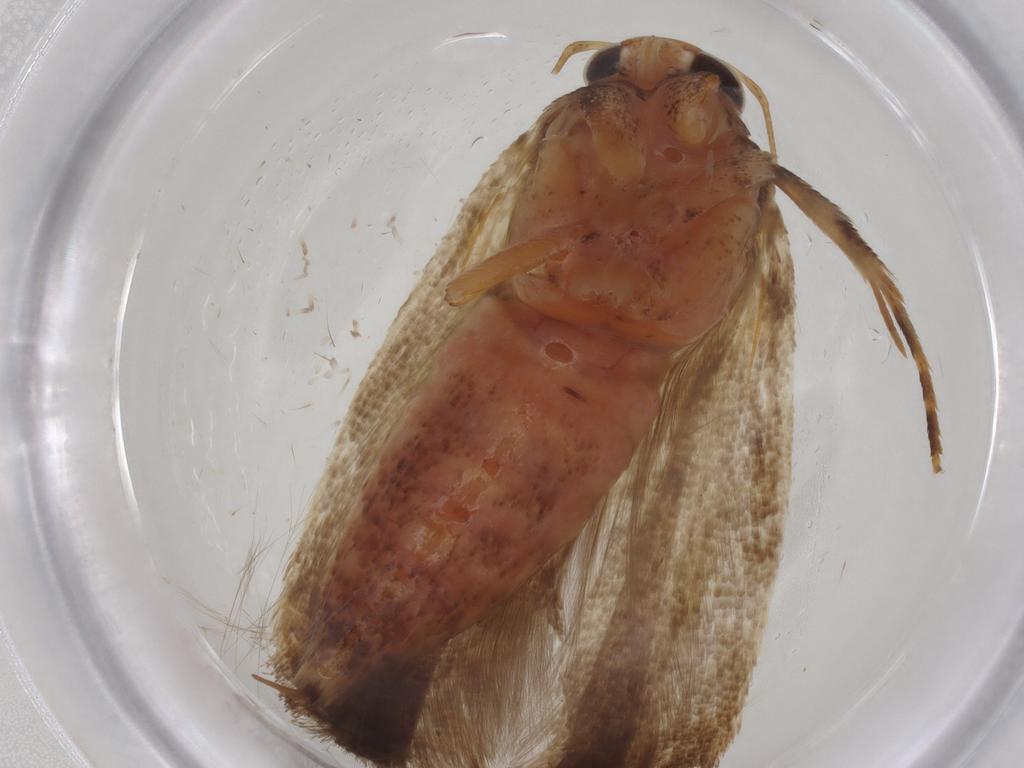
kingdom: Animalia
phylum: Arthropoda
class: Insecta
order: Lepidoptera
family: Gelechiidae
